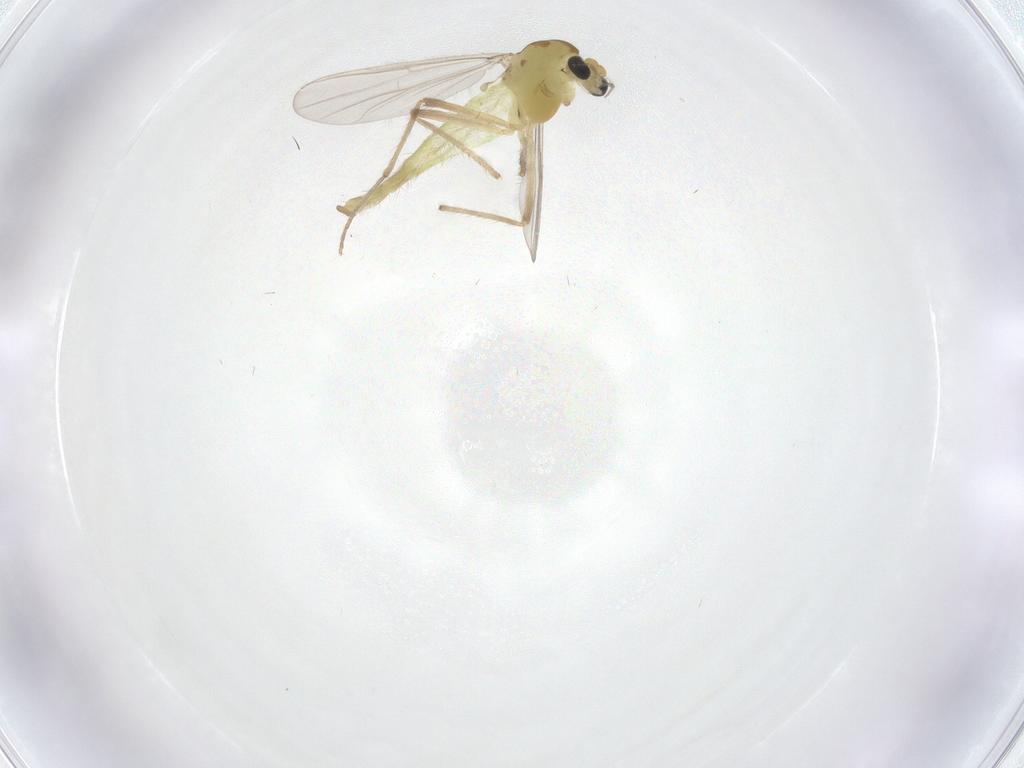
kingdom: Animalia
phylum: Arthropoda
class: Insecta
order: Diptera
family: Chironomidae
